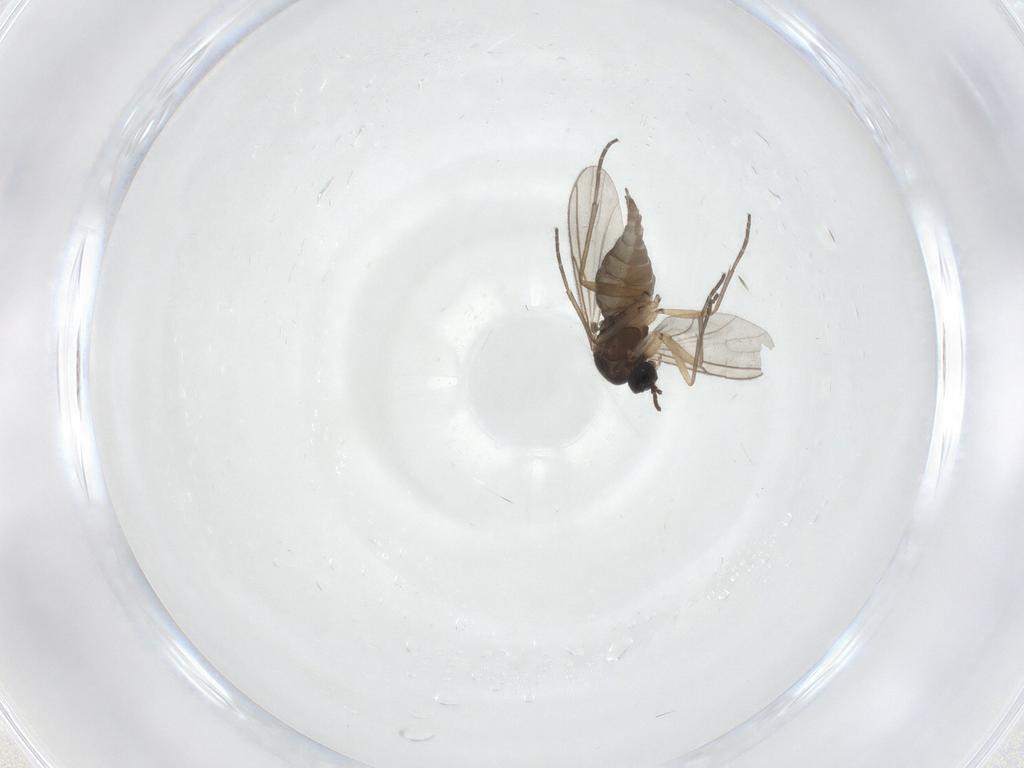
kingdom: Animalia
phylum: Arthropoda
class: Insecta
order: Diptera
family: Sciaridae
